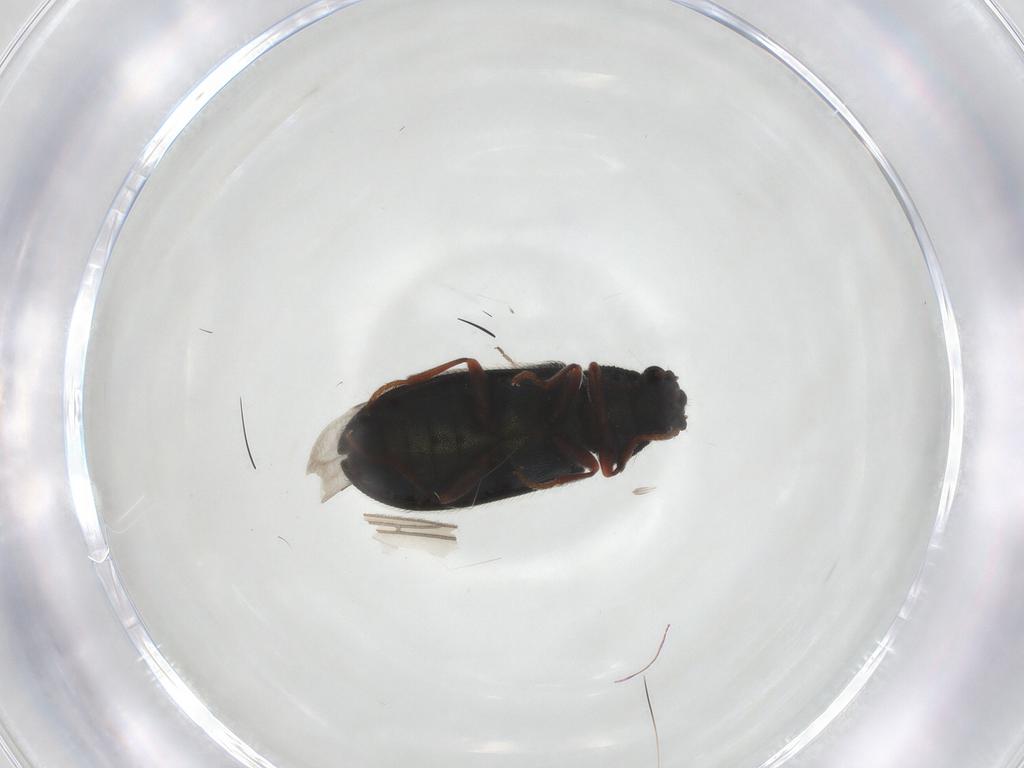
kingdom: Animalia
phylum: Arthropoda
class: Insecta
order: Coleoptera
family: Melyridae
